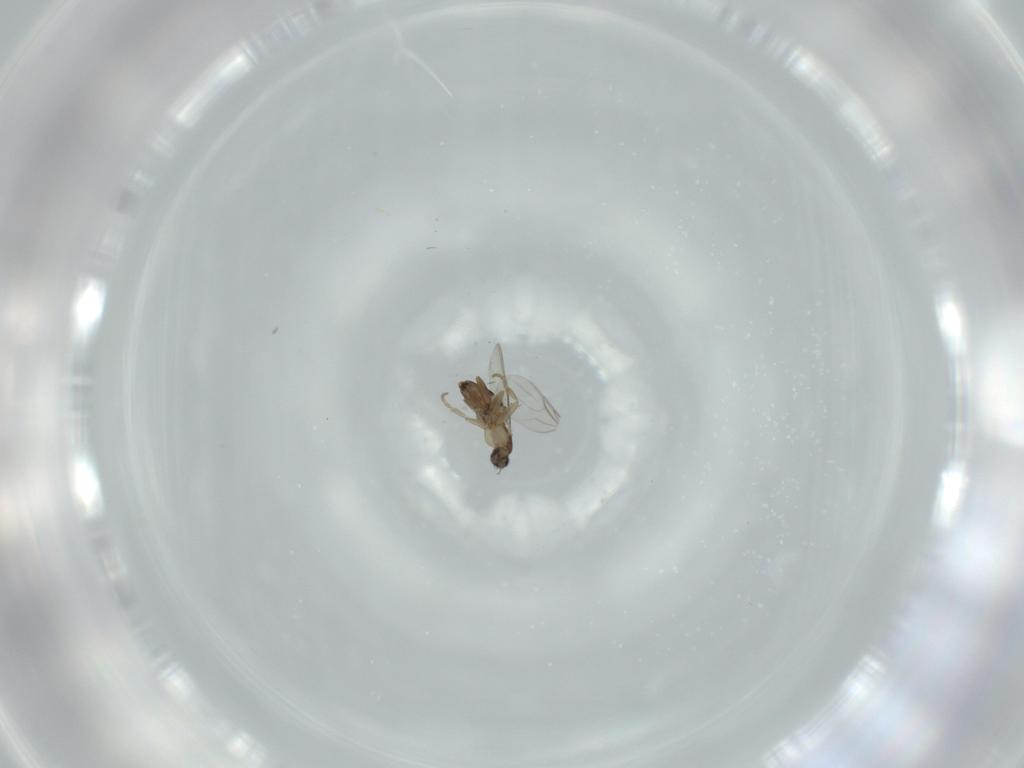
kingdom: Animalia
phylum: Arthropoda
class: Insecta
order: Diptera
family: Phoridae
